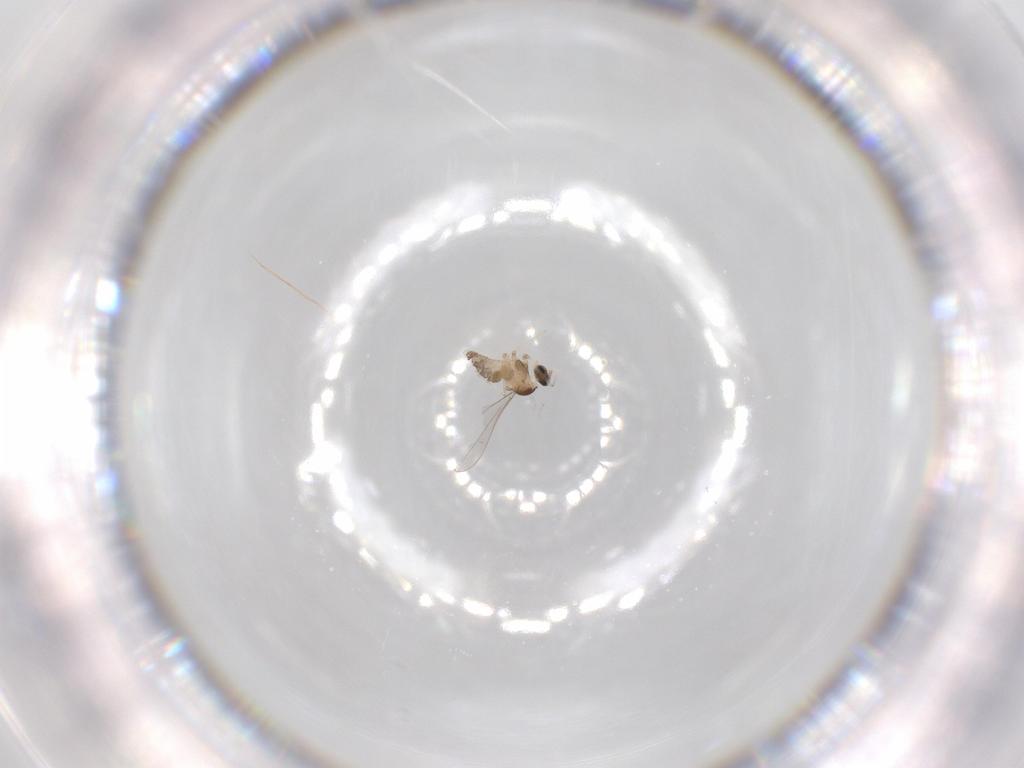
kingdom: Animalia
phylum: Arthropoda
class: Insecta
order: Diptera
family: Cecidomyiidae
